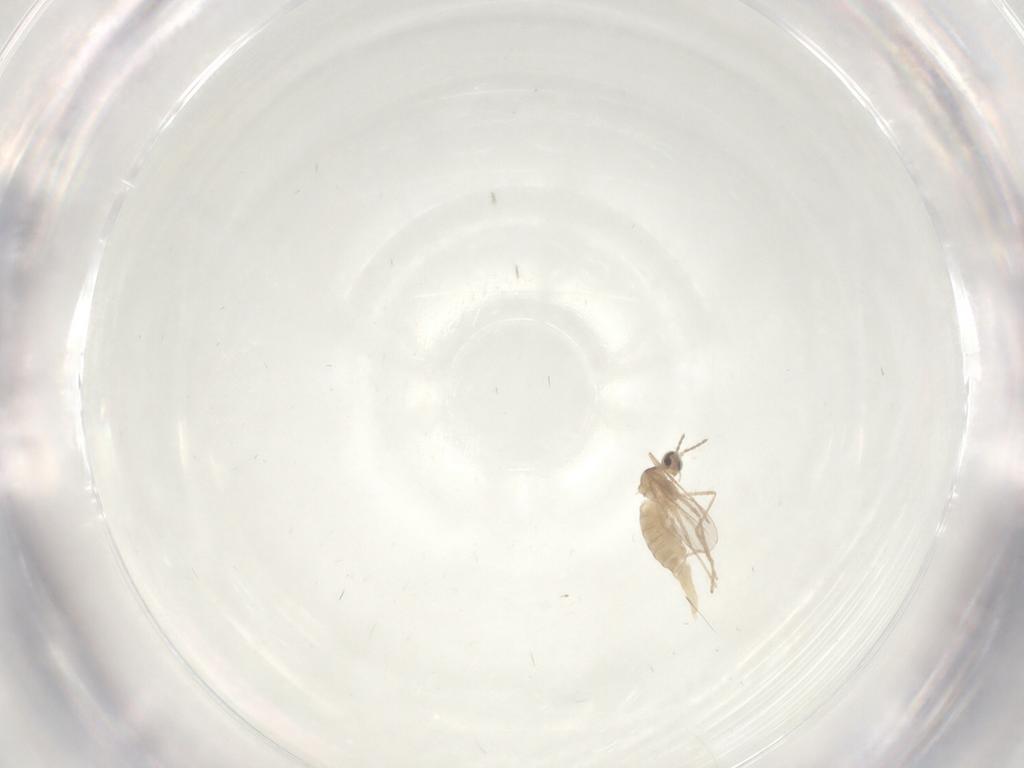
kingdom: Animalia
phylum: Arthropoda
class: Insecta
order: Diptera
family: Cecidomyiidae
